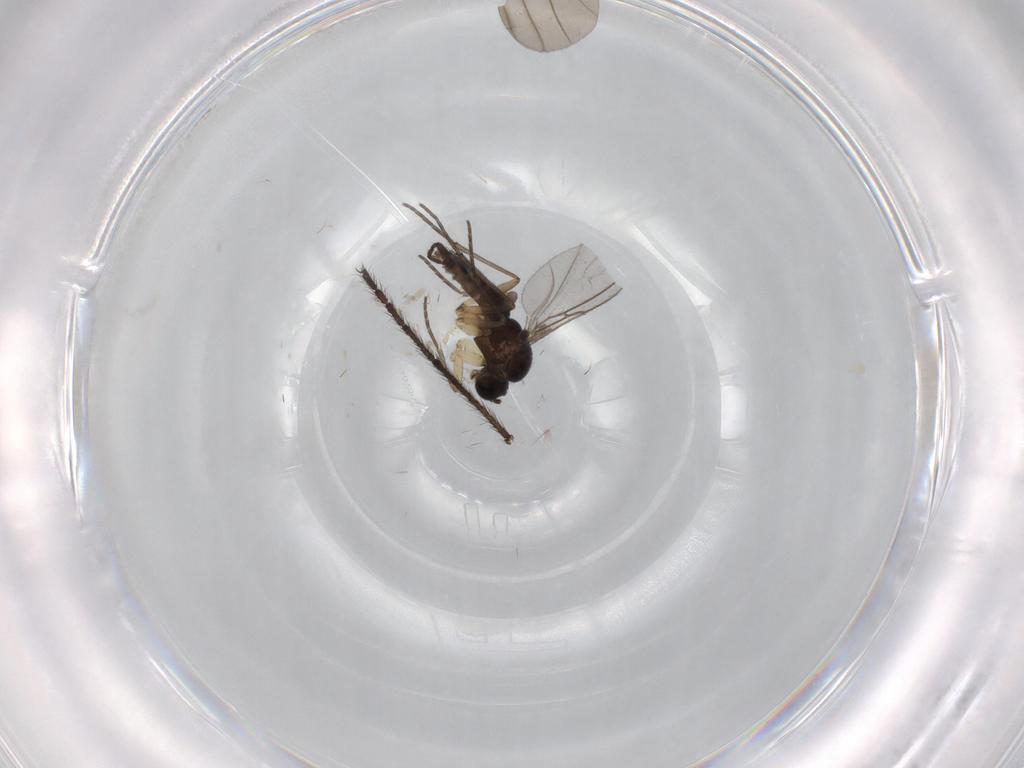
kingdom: Animalia
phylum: Arthropoda
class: Insecta
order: Diptera
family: Sciaridae
